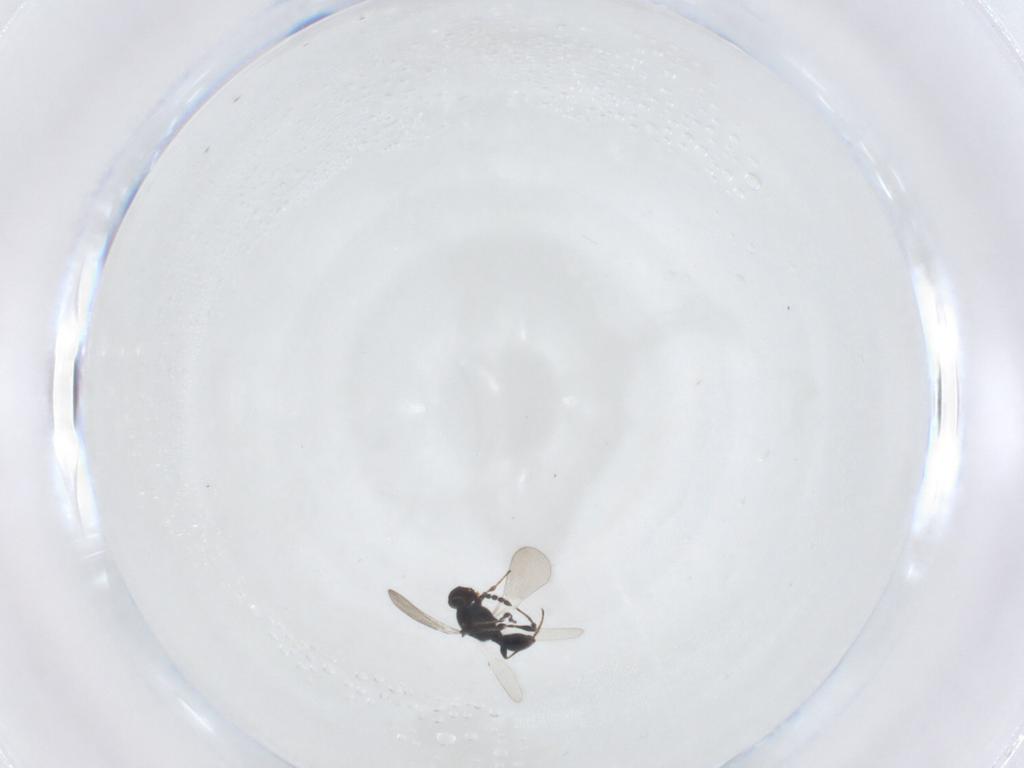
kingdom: Animalia
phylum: Arthropoda
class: Insecta
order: Hymenoptera
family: Platygastridae
